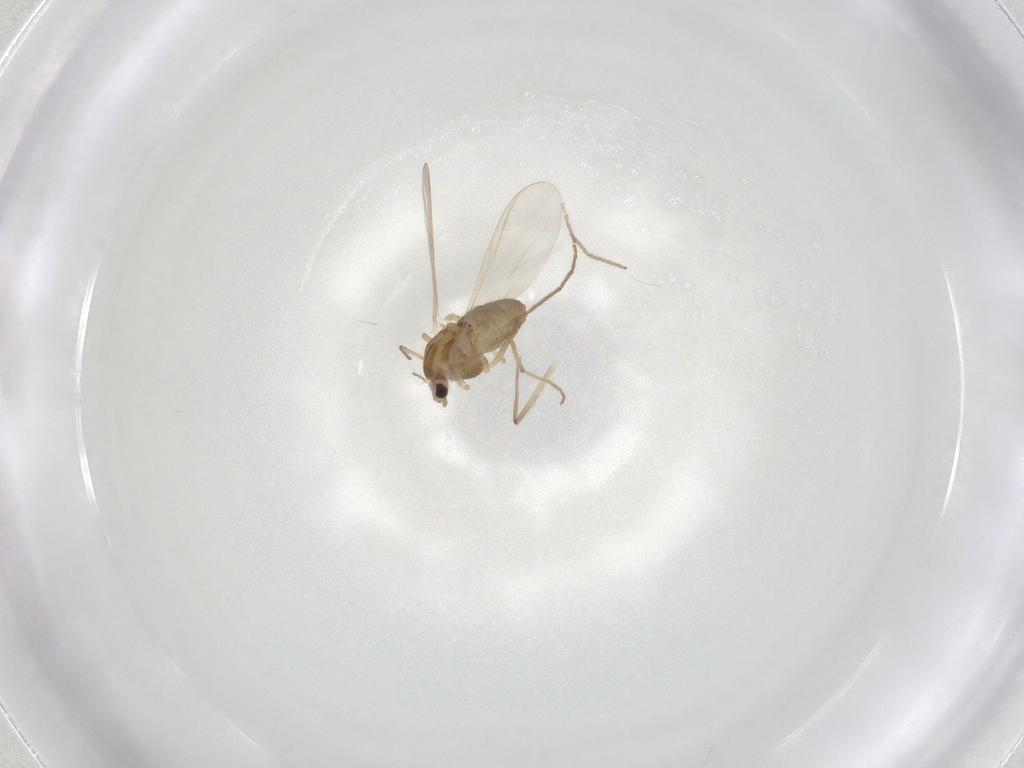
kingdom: Animalia
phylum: Arthropoda
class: Insecta
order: Diptera
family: Chironomidae
